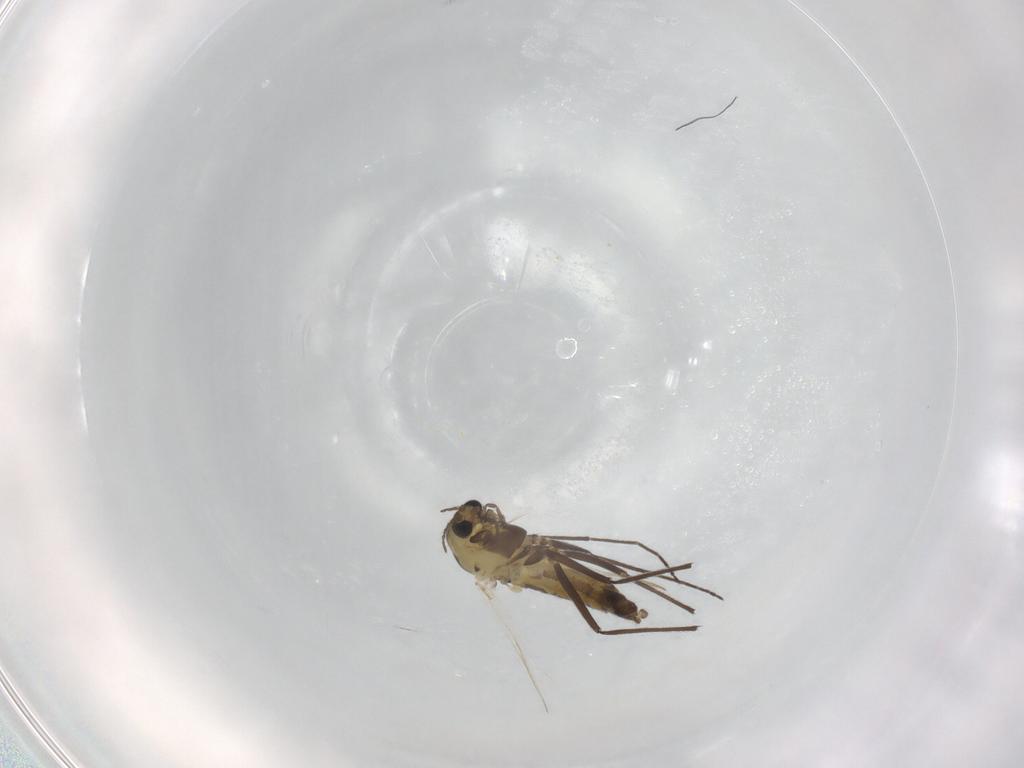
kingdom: Animalia
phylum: Arthropoda
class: Insecta
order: Diptera
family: Chironomidae
